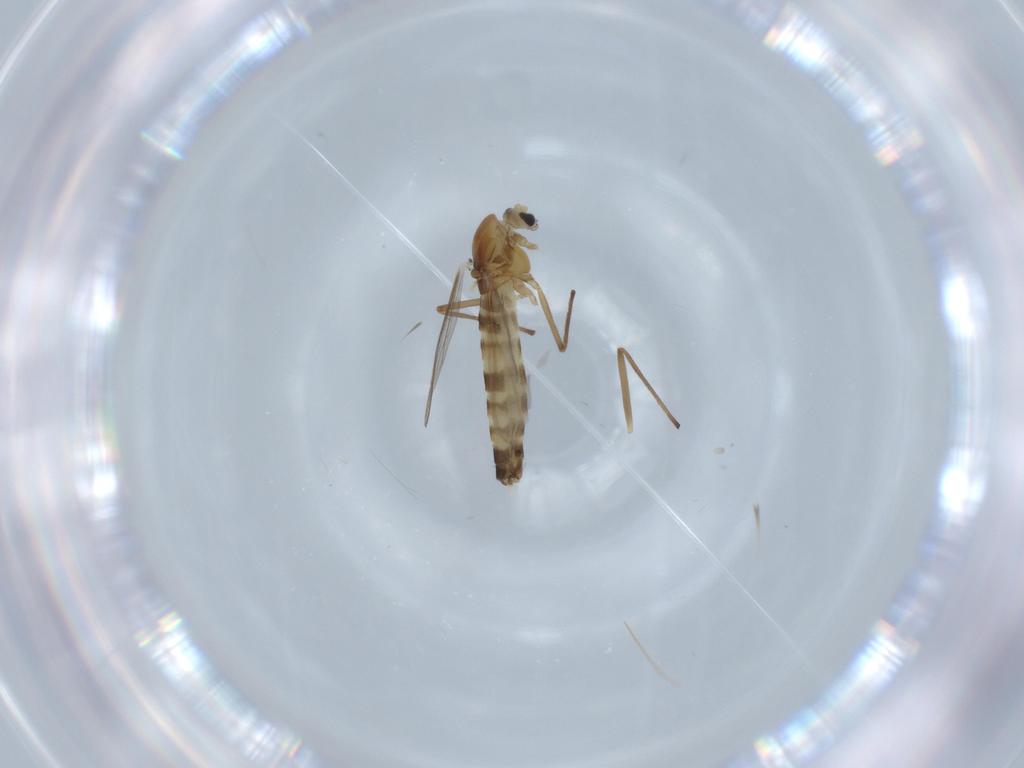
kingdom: Animalia
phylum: Arthropoda
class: Insecta
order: Diptera
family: Chironomidae
